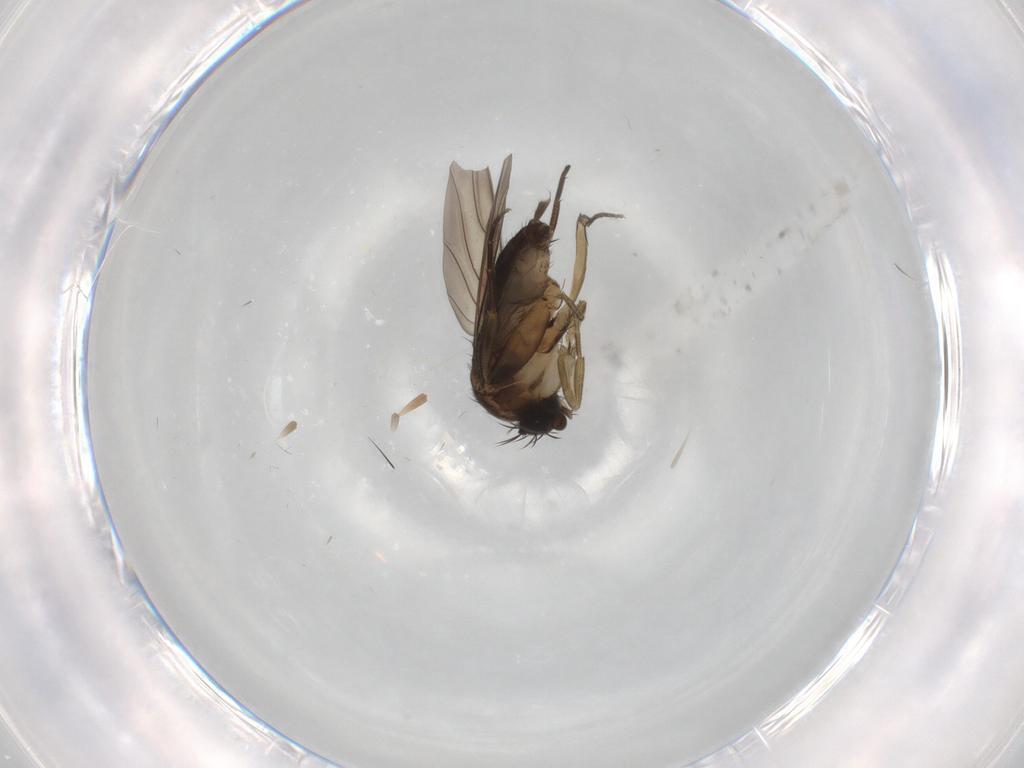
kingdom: Animalia
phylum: Arthropoda
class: Insecta
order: Diptera
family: Phoridae
